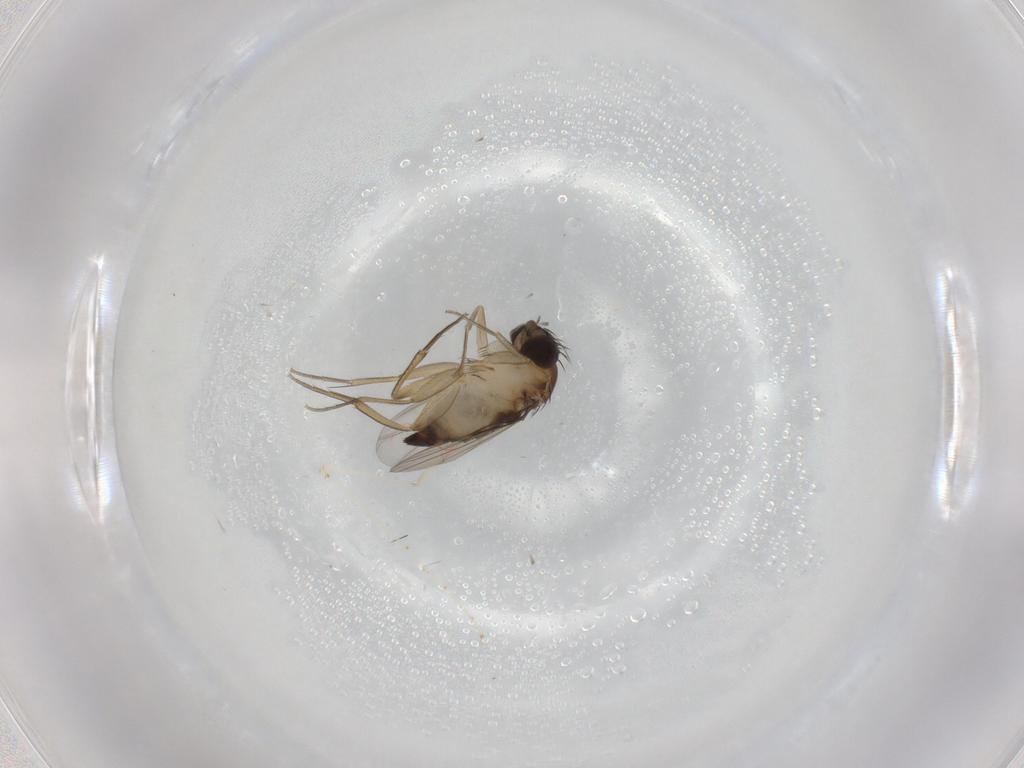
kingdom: Animalia
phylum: Arthropoda
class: Insecta
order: Diptera
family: Phoridae
